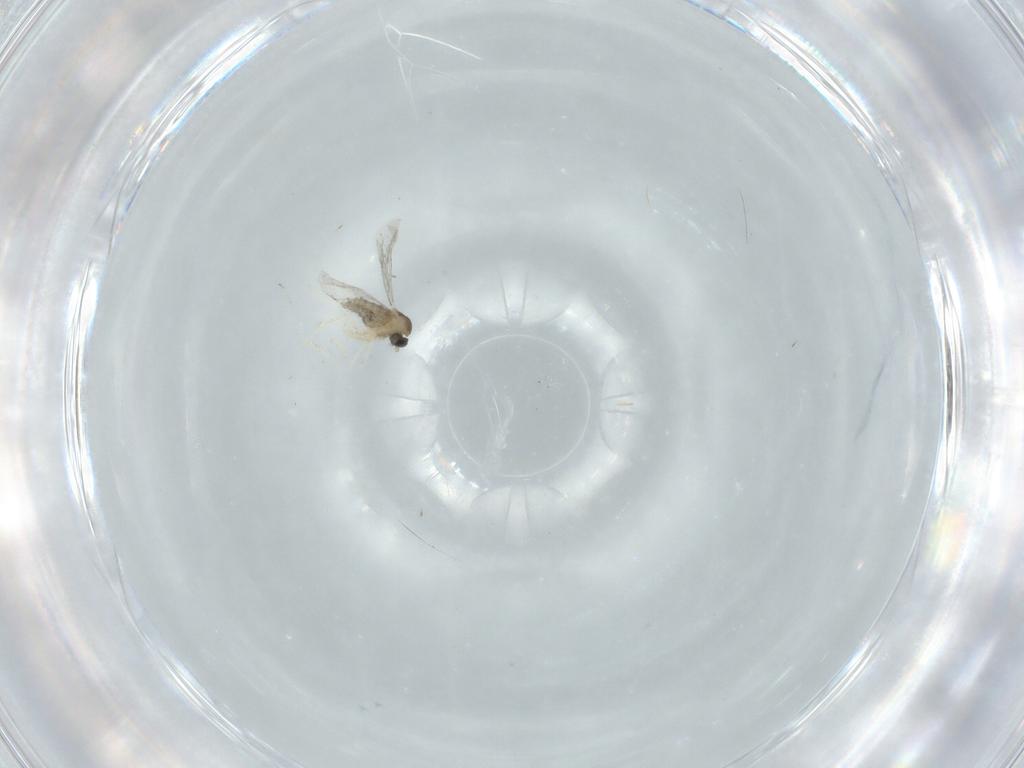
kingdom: Animalia
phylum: Arthropoda
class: Insecta
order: Diptera
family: Cecidomyiidae
